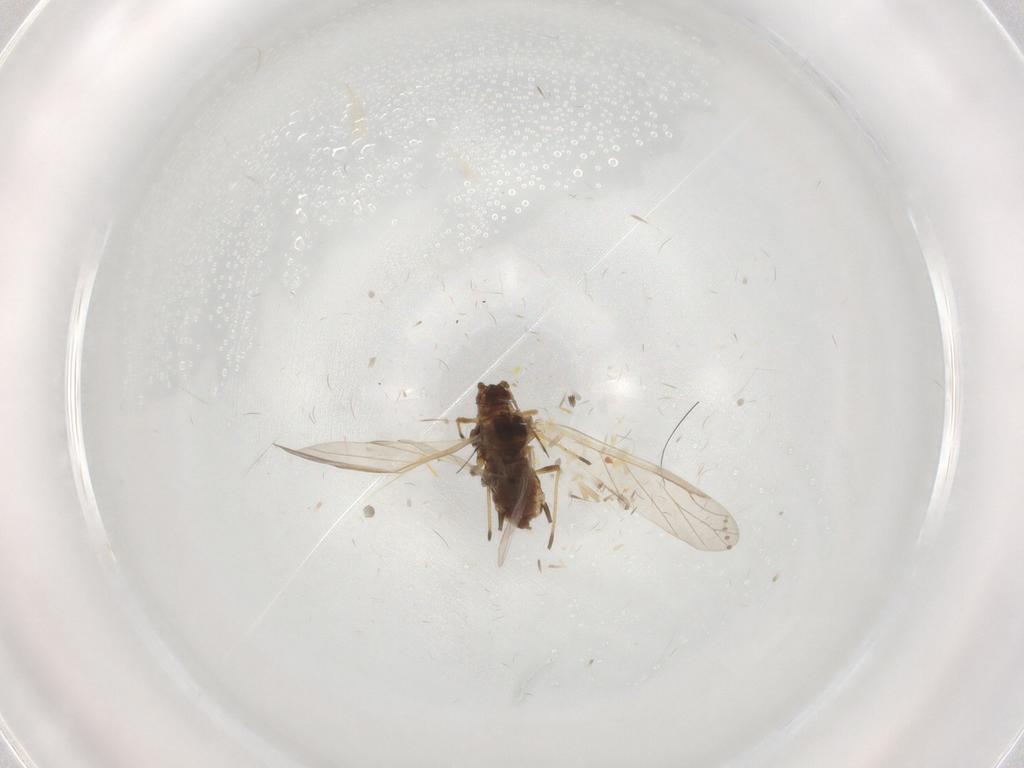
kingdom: Animalia
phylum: Arthropoda
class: Insecta
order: Hemiptera
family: Aphididae
